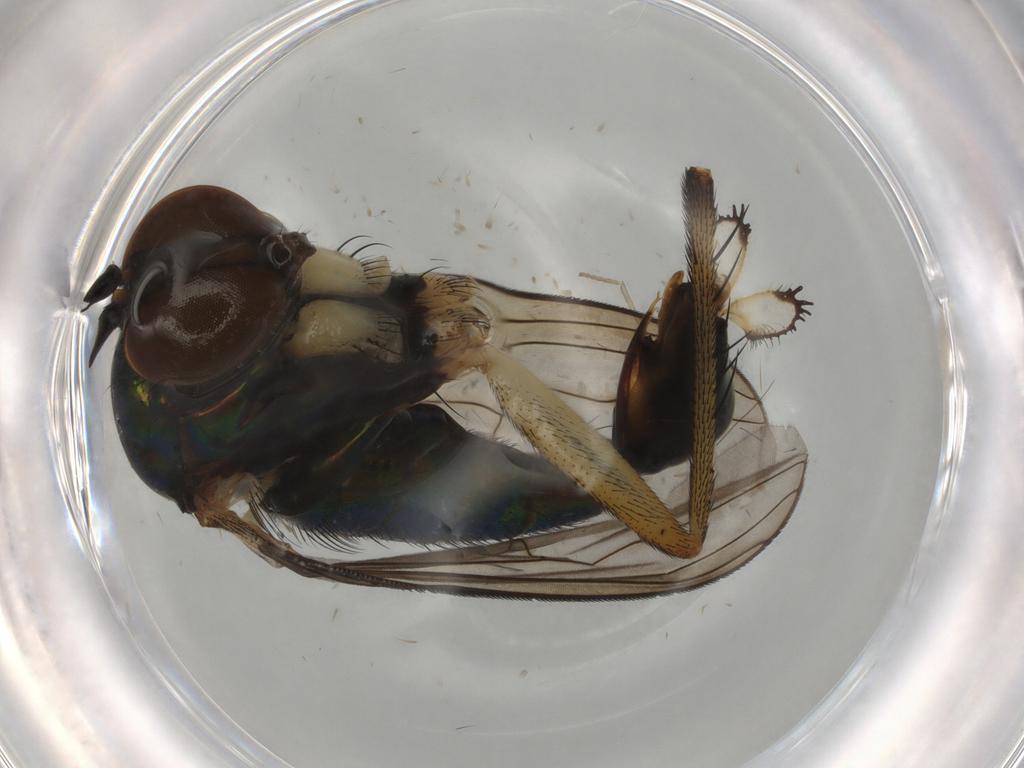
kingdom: Animalia
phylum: Arthropoda
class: Insecta
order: Diptera
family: Dolichopodidae
